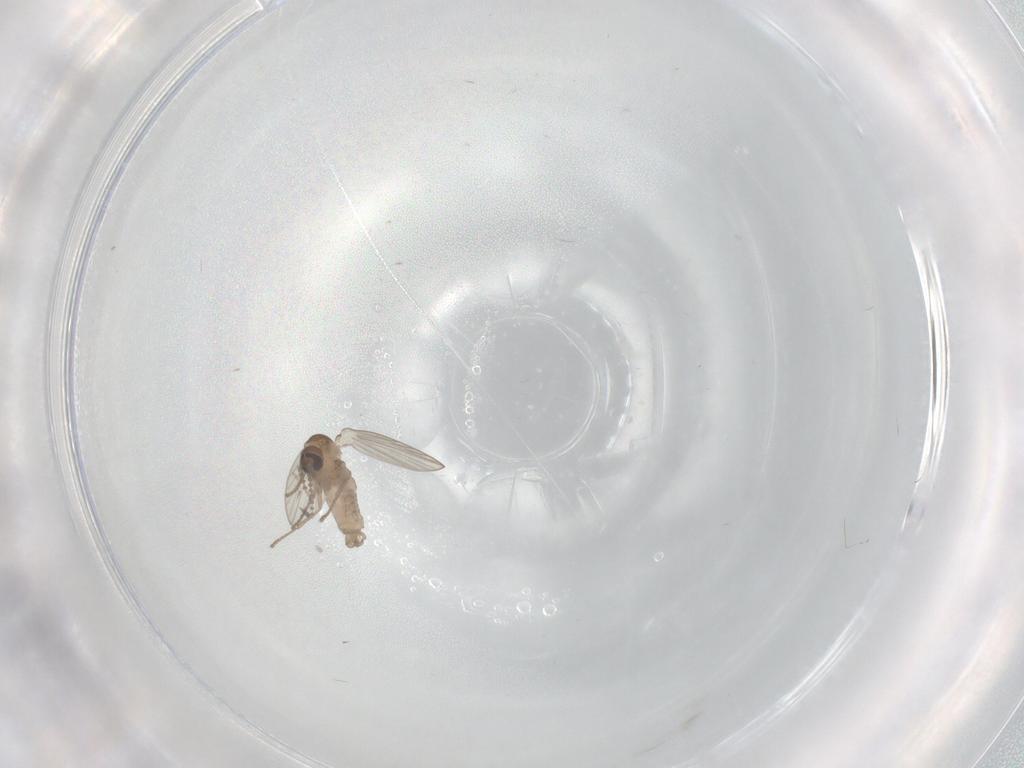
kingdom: Animalia
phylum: Arthropoda
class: Insecta
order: Diptera
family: Psychodidae
